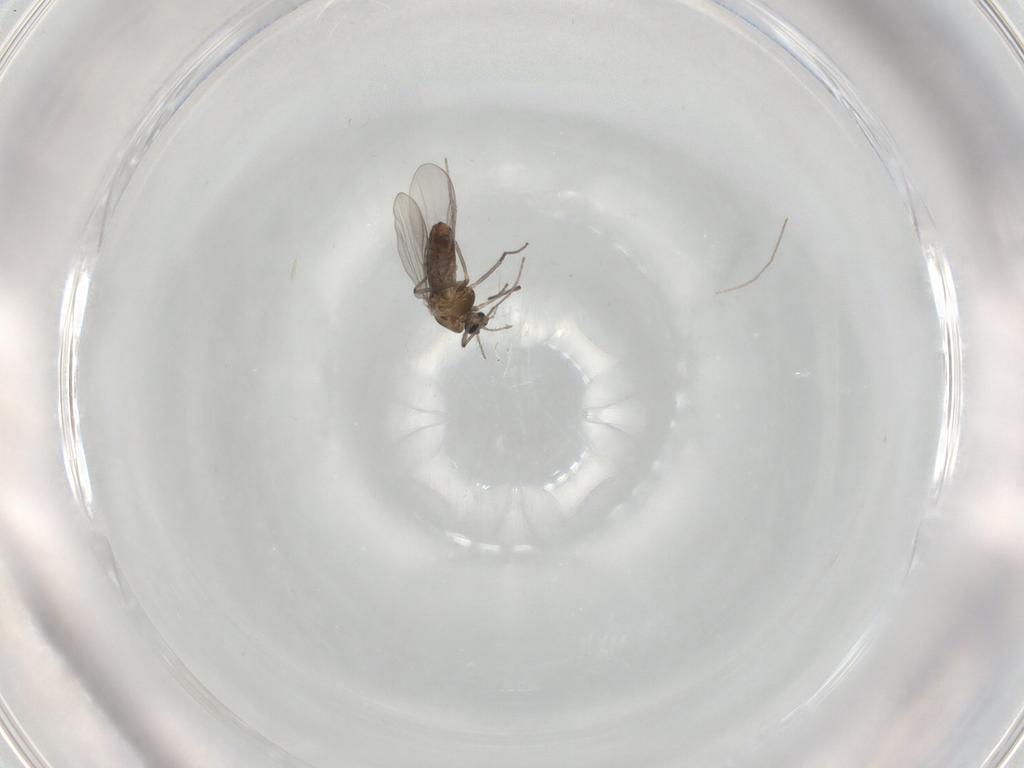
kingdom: Animalia
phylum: Arthropoda
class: Insecta
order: Diptera
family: Chironomidae
